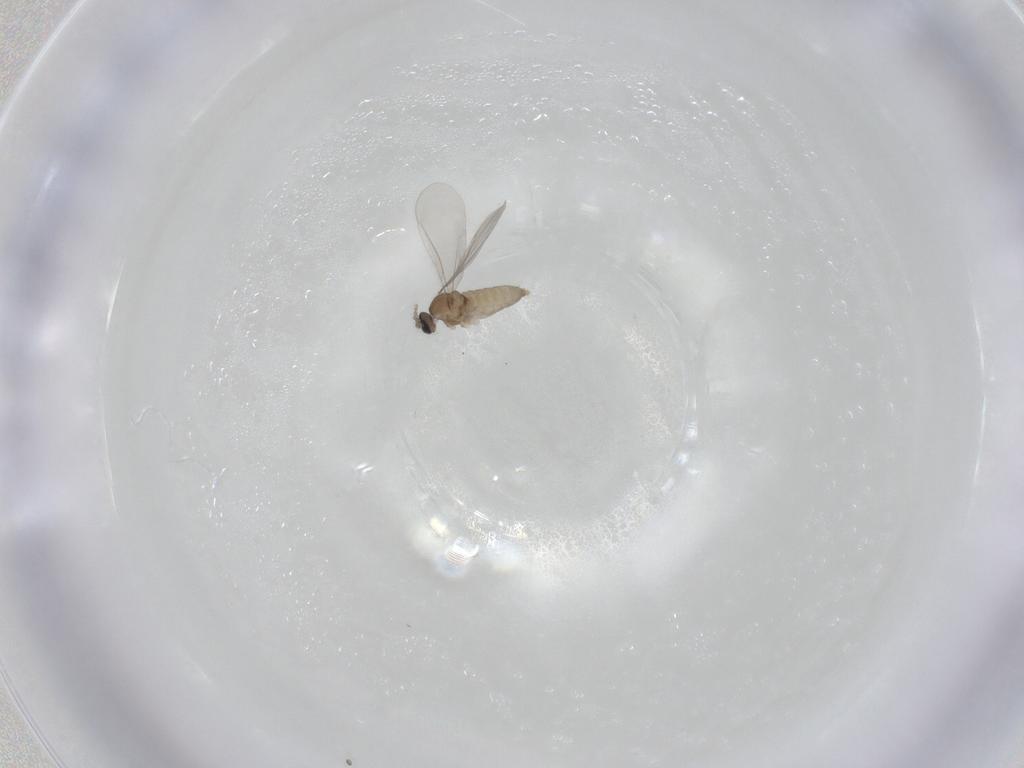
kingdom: Animalia
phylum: Arthropoda
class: Insecta
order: Diptera
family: Cecidomyiidae
